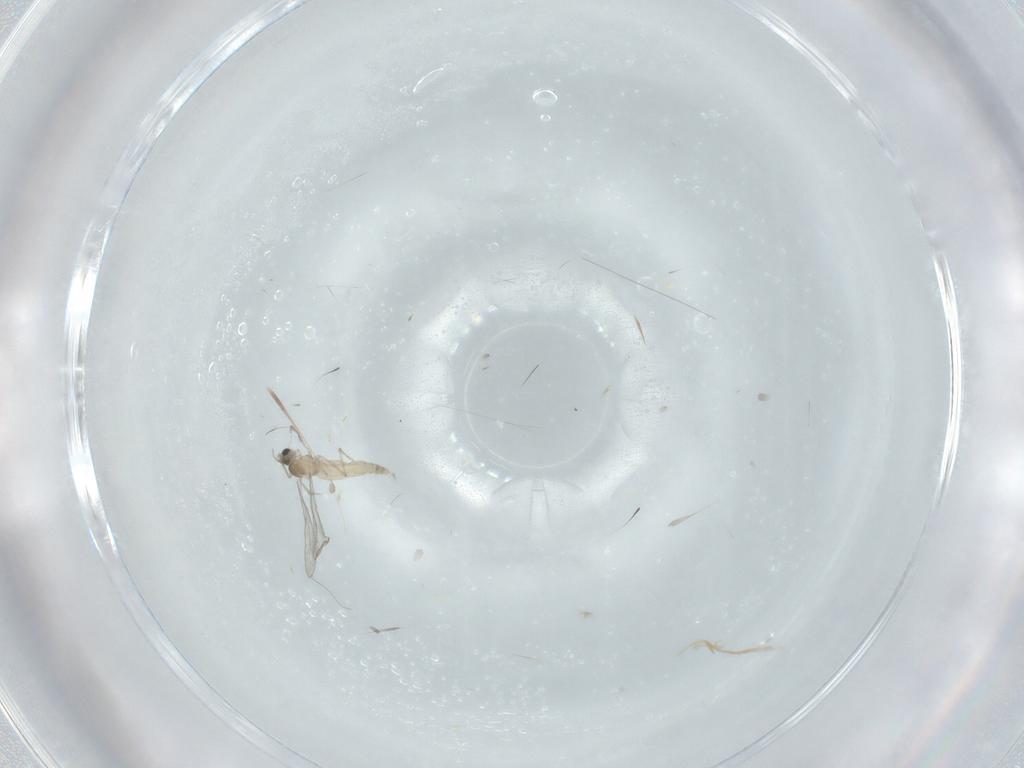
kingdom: Animalia
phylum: Arthropoda
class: Insecta
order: Diptera
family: Cecidomyiidae
